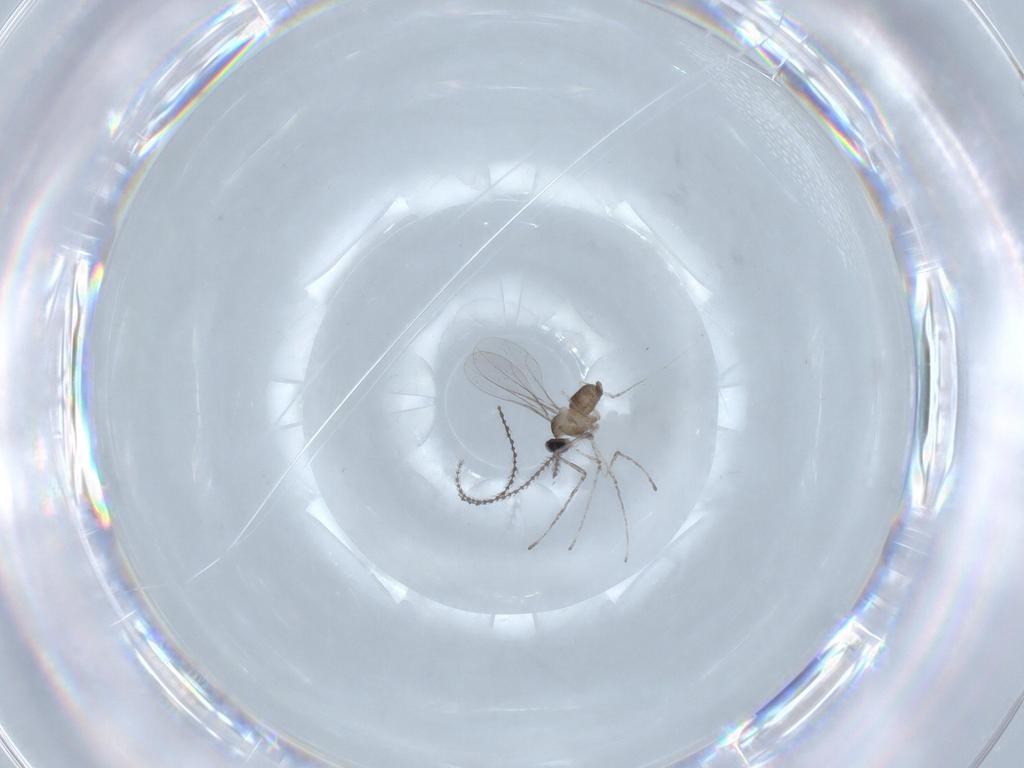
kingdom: Animalia
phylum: Arthropoda
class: Insecta
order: Diptera
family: Cecidomyiidae
